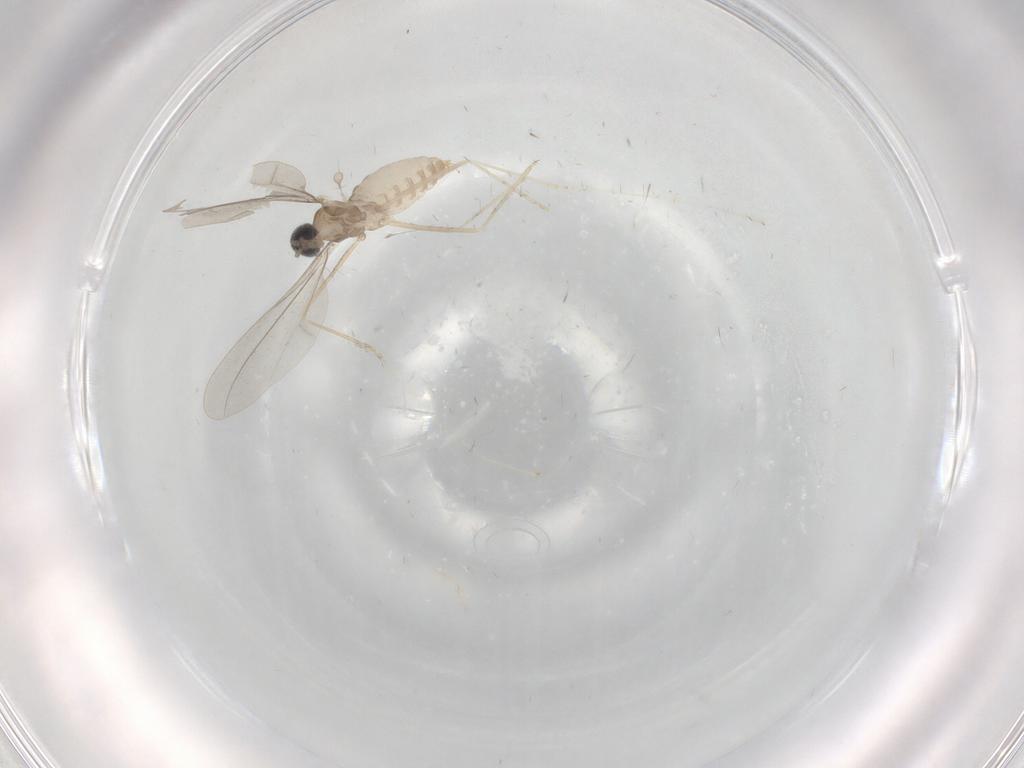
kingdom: Animalia
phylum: Arthropoda
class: Insecta
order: Diptera
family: Cecidomyiidae
